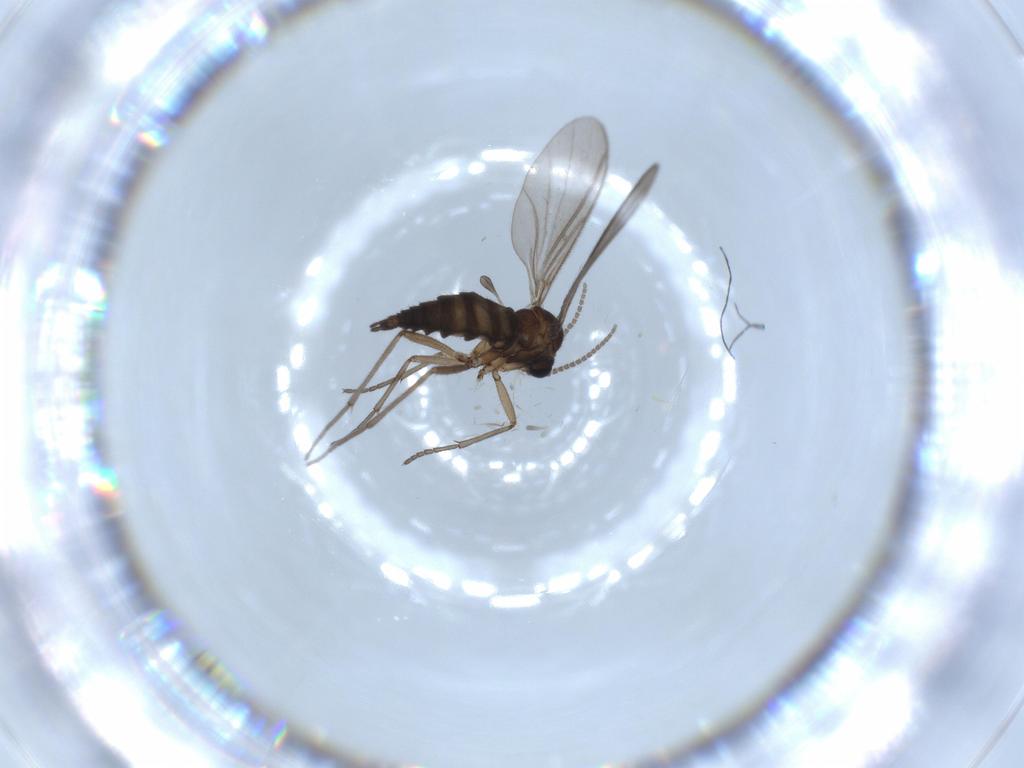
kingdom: Animalia
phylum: Arthropoda
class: Insecta
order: Diptera
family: Sciaridae
